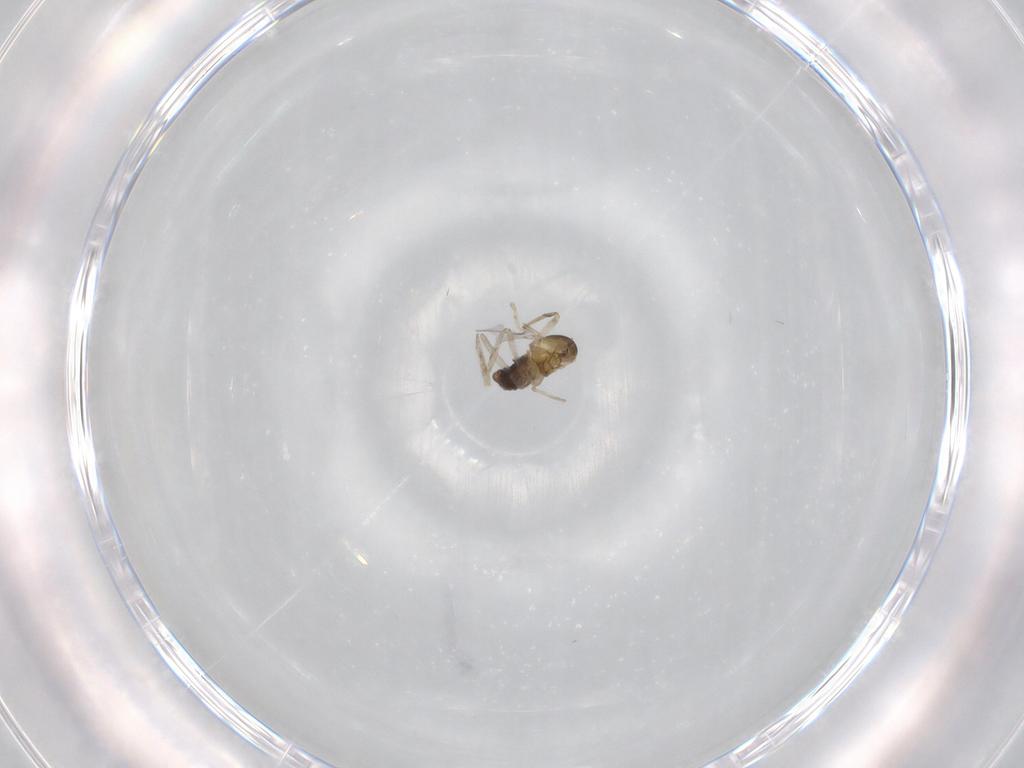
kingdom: Animalia
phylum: Arthropoda
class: Insecta
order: Diptera
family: Cecidomyiidae
